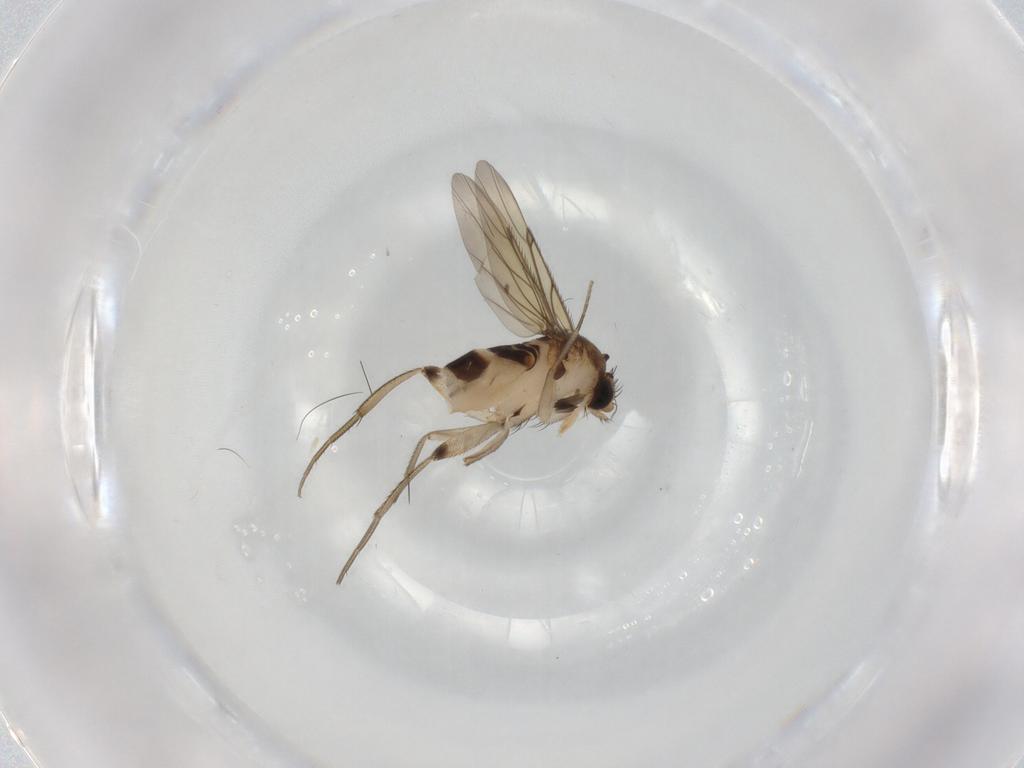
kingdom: Animalia
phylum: Arthropoda
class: Insecta
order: Diptera
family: Phoridae
